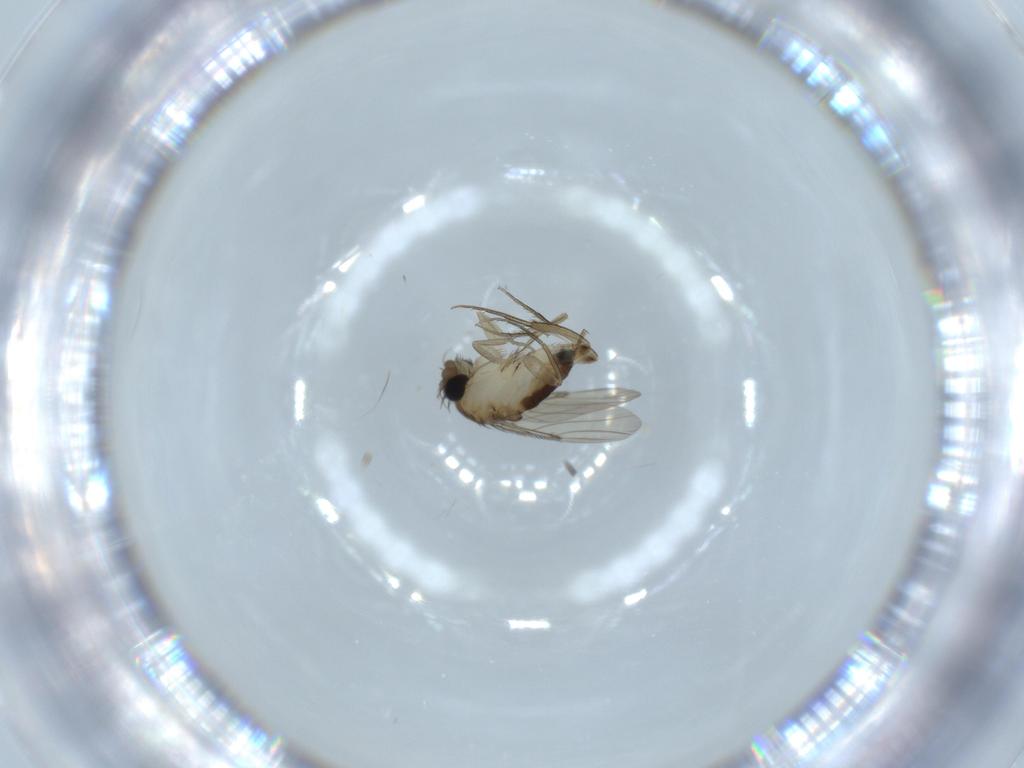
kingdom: Animalia
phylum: Arthropoda
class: Insecta
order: Diptera
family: Phoridae
